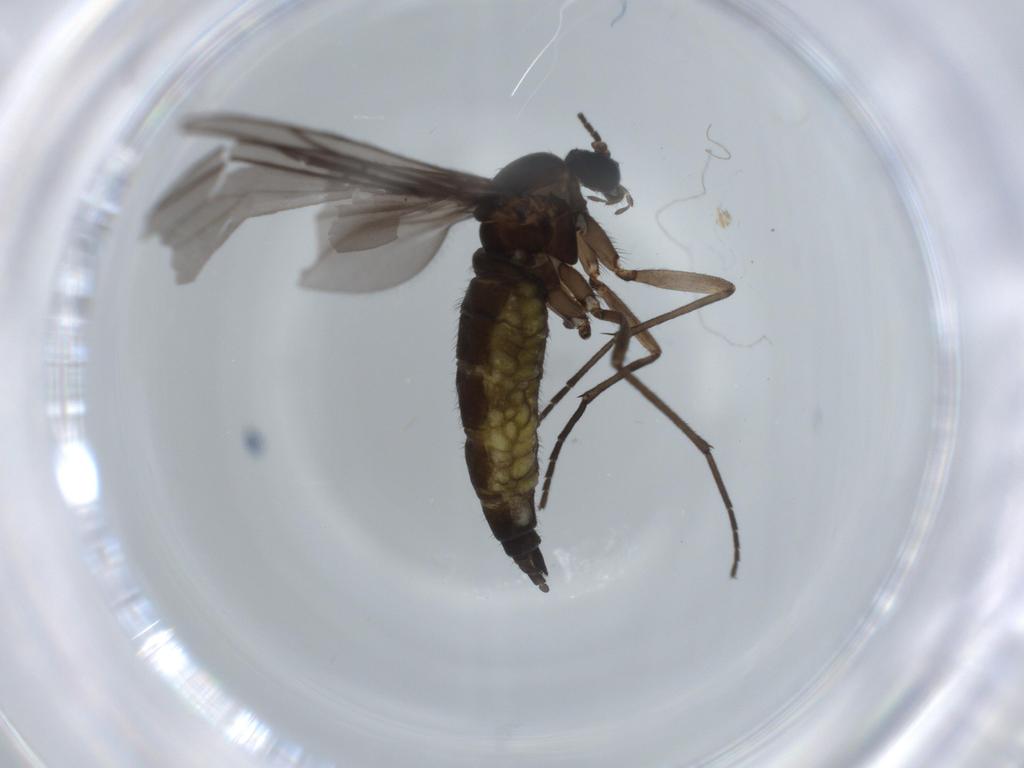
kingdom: Animalia
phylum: Arthropoda
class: Insecta
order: Diptera
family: Sciaridae
